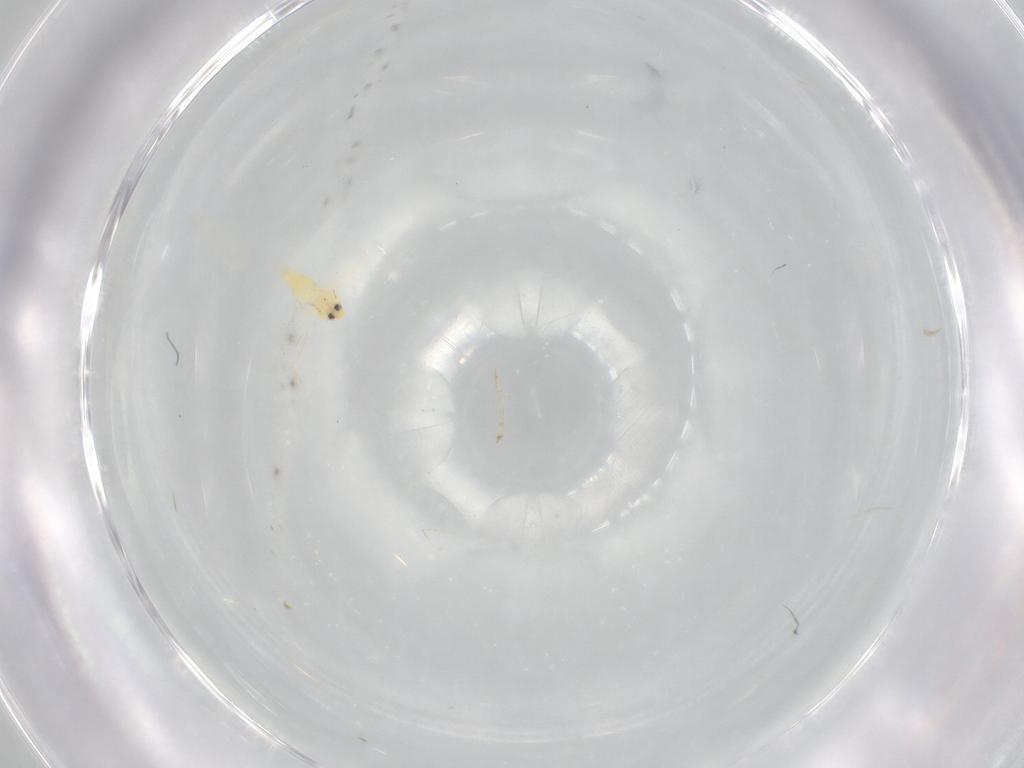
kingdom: Animalia
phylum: Arthropoda
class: Insecta
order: Hemiptera
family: Aleyrodidae
